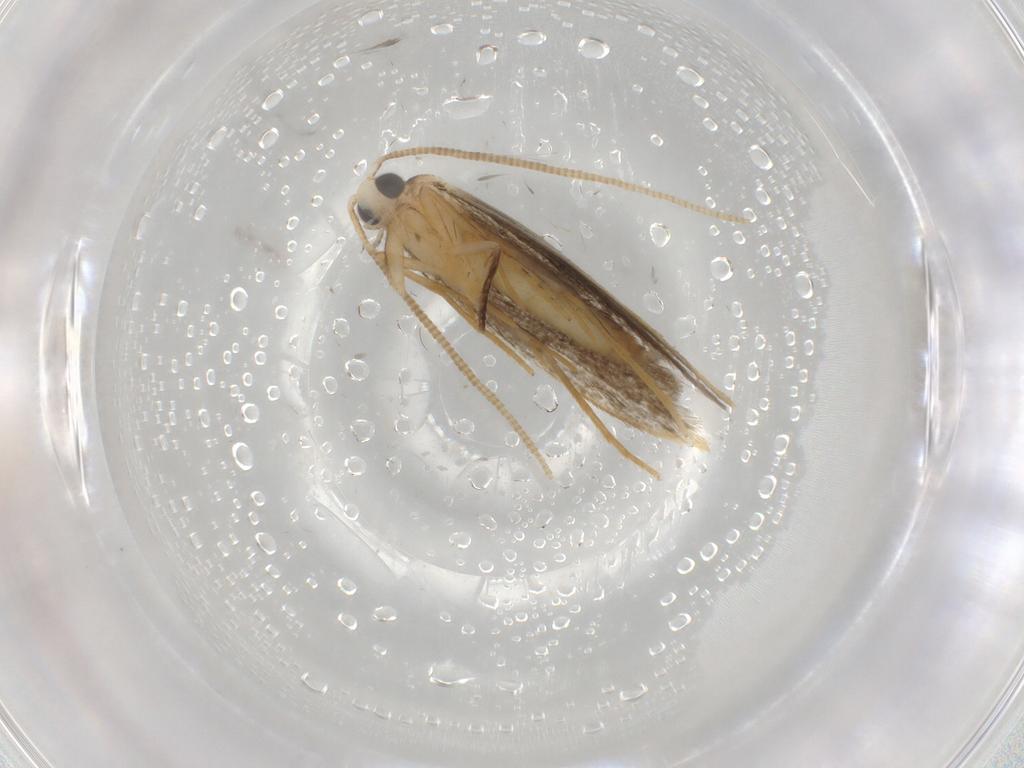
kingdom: Animalia
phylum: Arthropoda
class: Insecta
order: Lepidoptera
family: Tineidae
